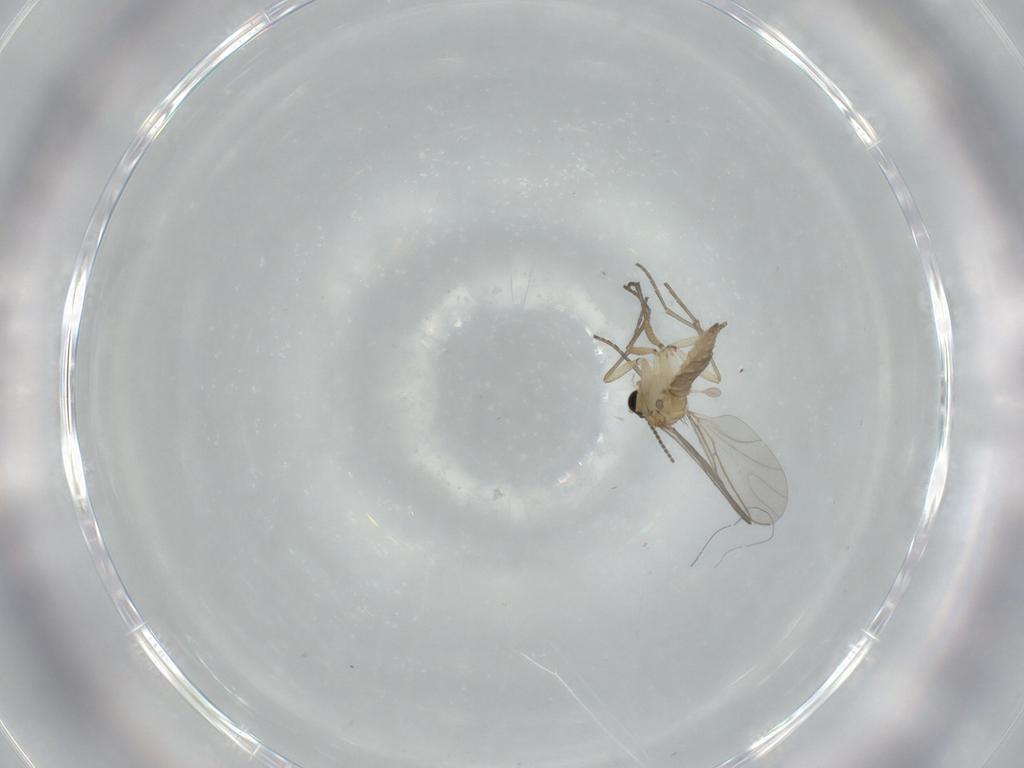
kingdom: Animalia
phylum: Arthropoda
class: Insecta
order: Diptera
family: Sciaridae
